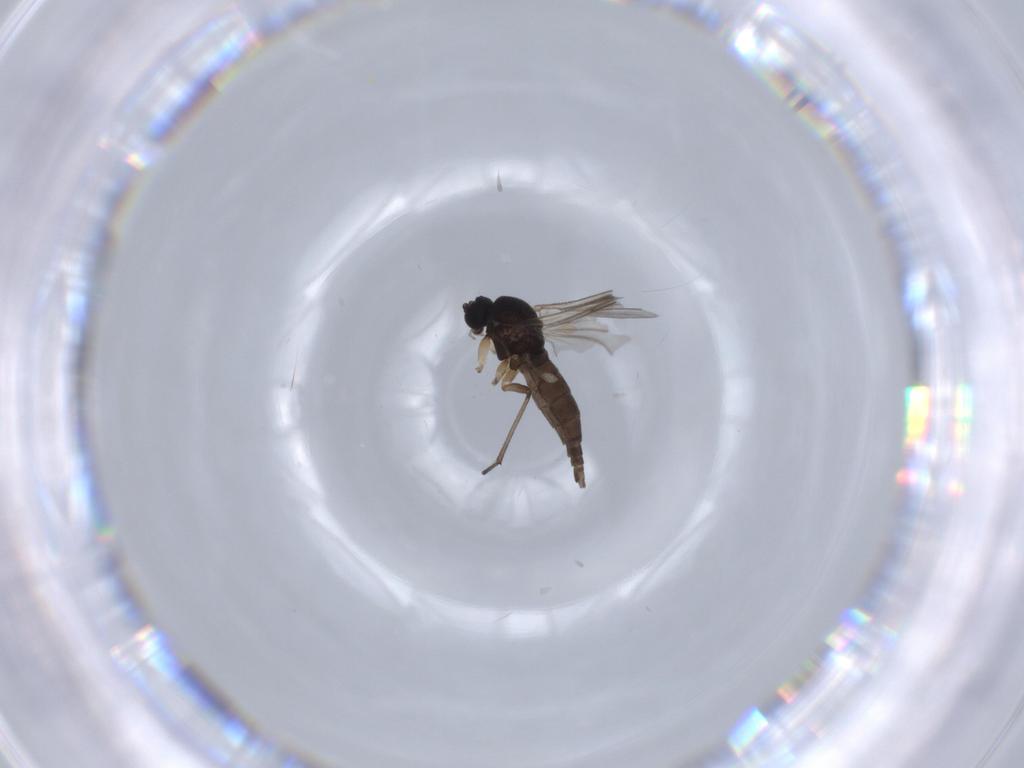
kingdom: Animalia
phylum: Arthropoda
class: Insecta
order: Diptera
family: Sciaridae
